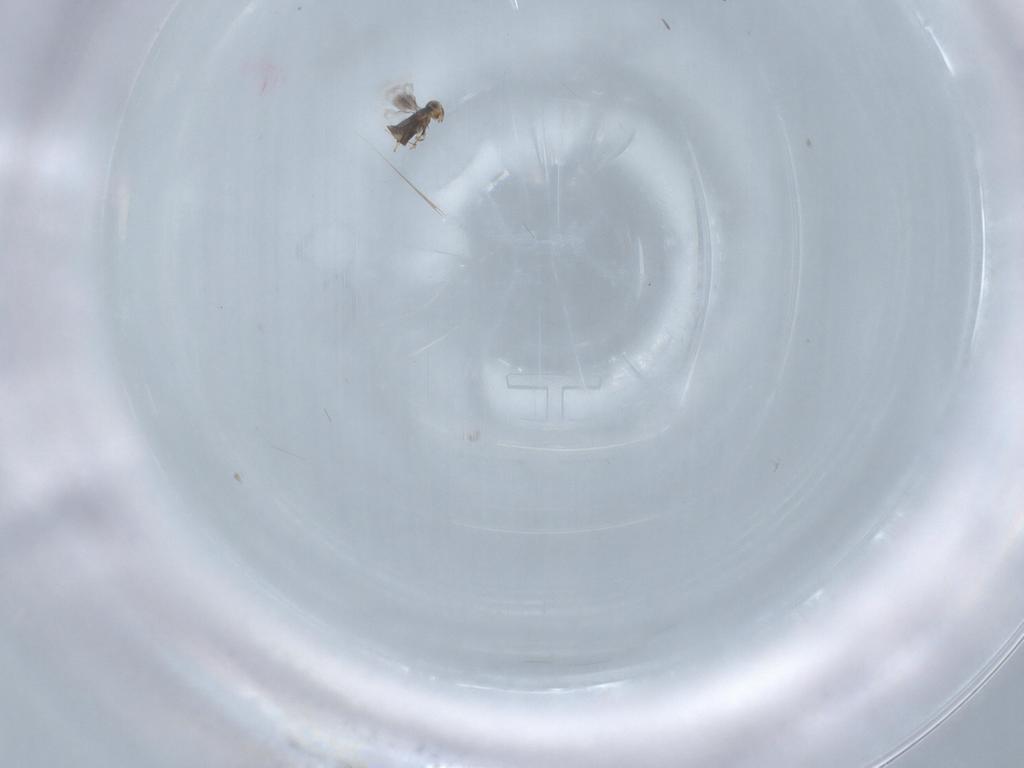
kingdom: Animalia
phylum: Arthropoda
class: Insecta
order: Hymenoptera
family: Signiphoridae
